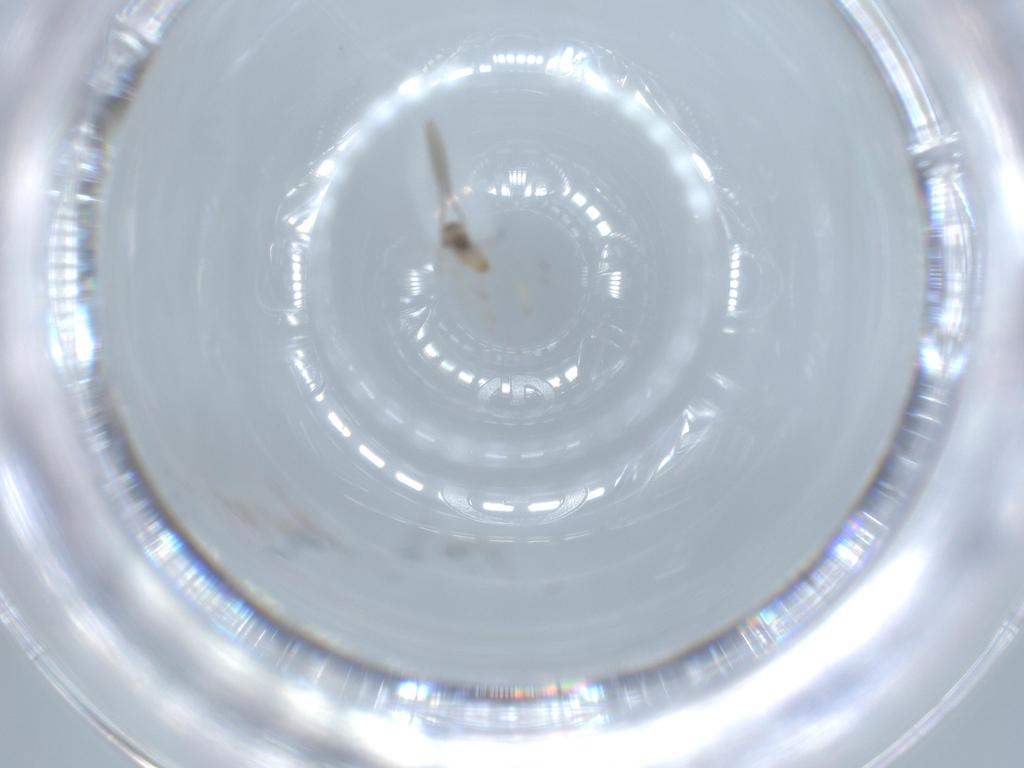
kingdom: Animalia
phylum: Arthropoda
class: Insecta
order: Diptera
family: Cecidomyiidae
